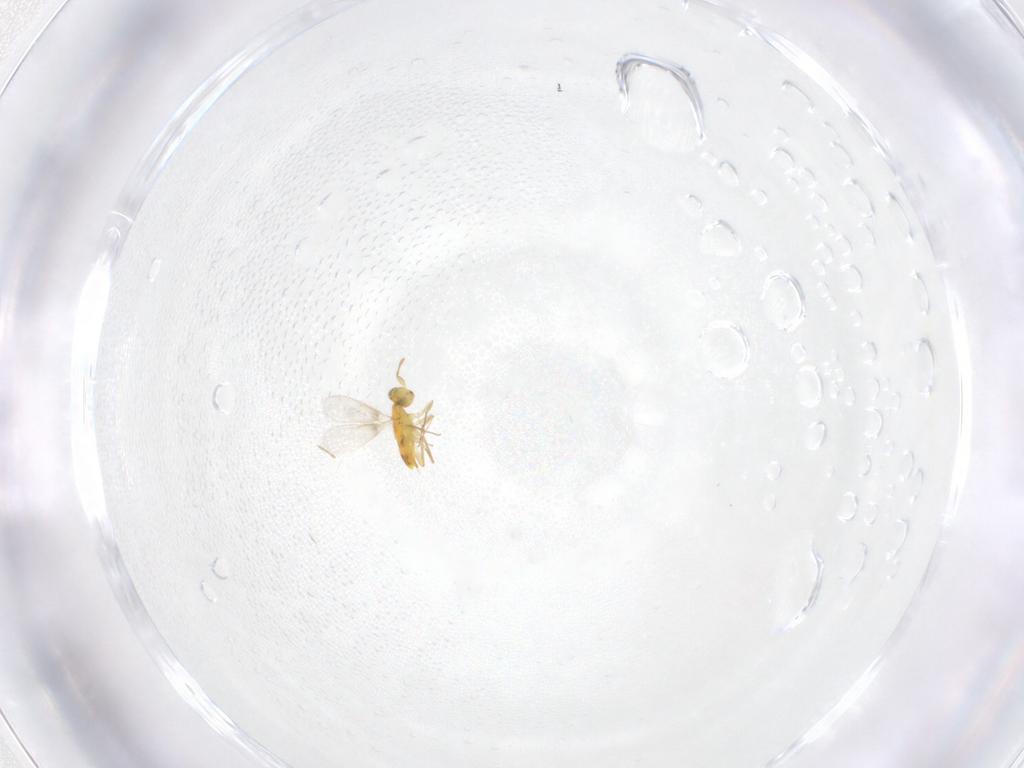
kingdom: Animalia
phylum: Arthropoda
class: Insecta
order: Hymenoptera
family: Aphelinidae
